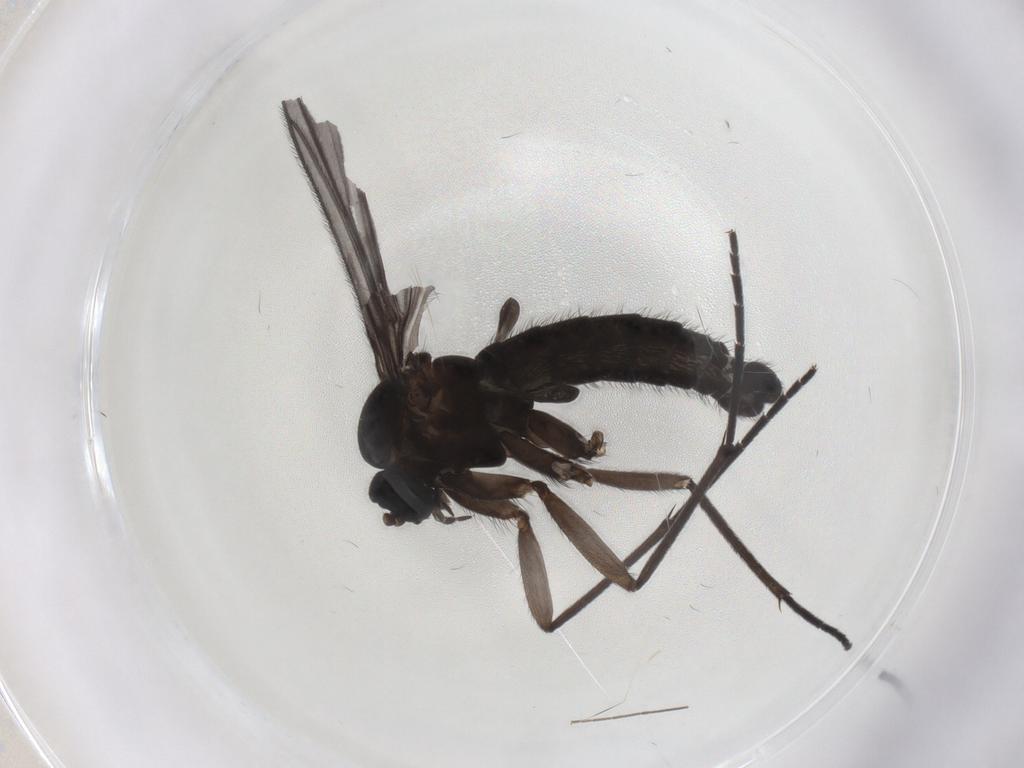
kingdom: Animalia
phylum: Arthropoda
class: Insecta
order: Diptera
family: Sciaridae
